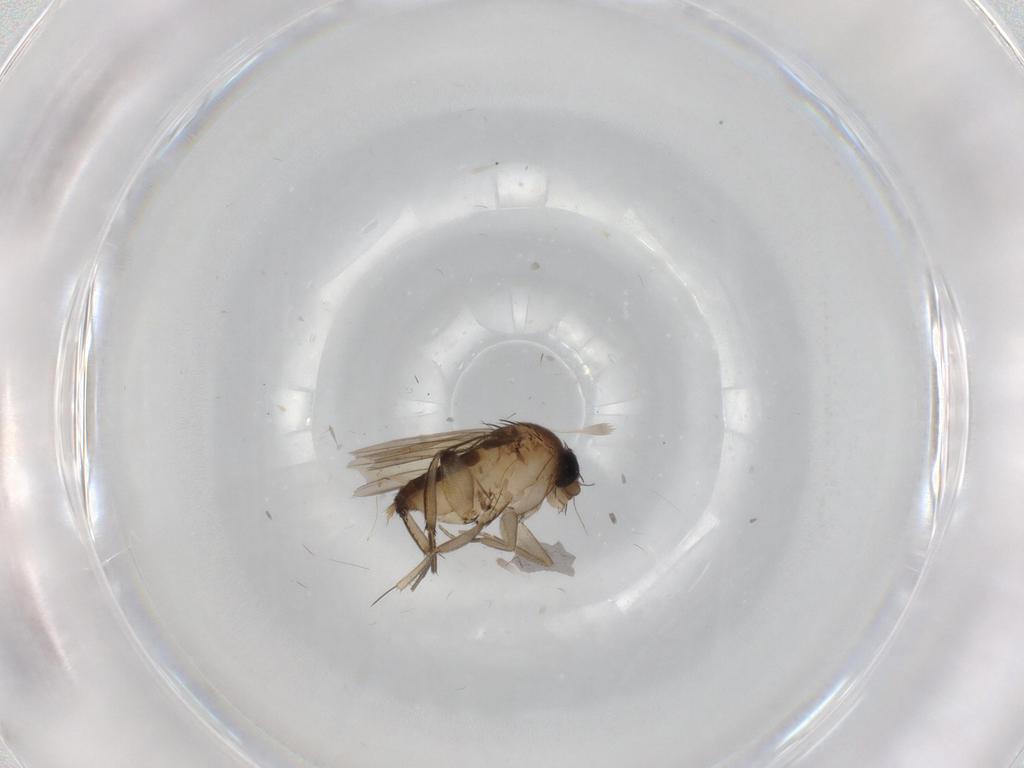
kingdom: Animalia
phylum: Arthropoda
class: Insecta
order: Diptera
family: Phoridae
